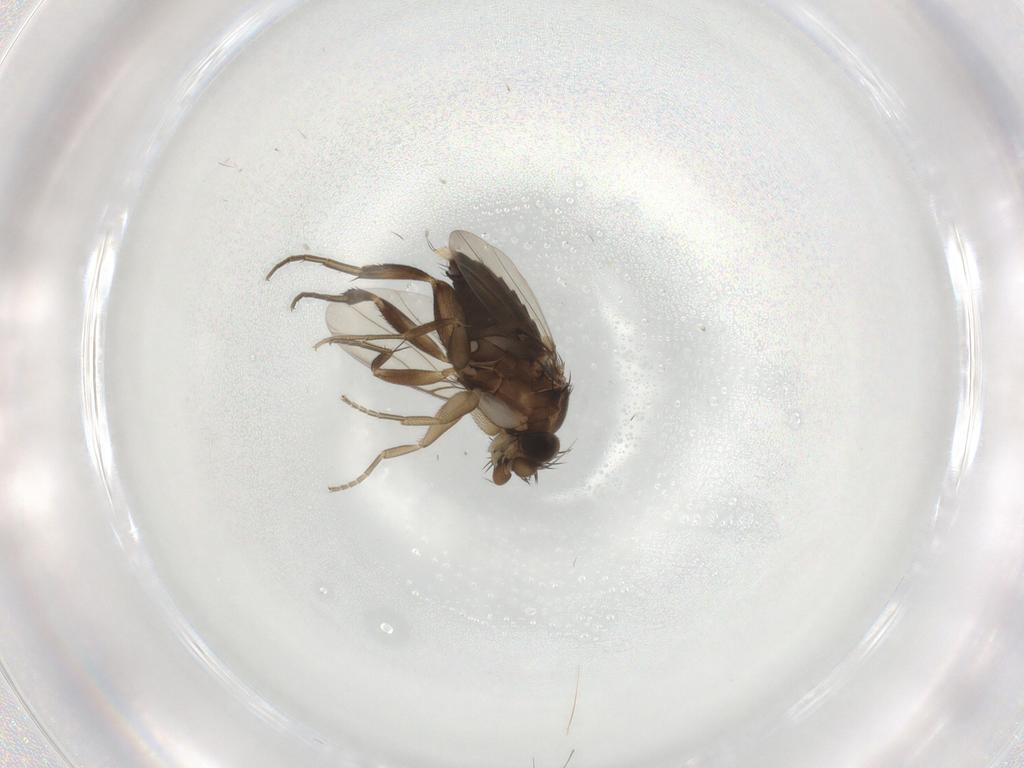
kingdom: Animalia
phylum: Arthropoda
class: Insecta
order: Diptera
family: Phoridae
